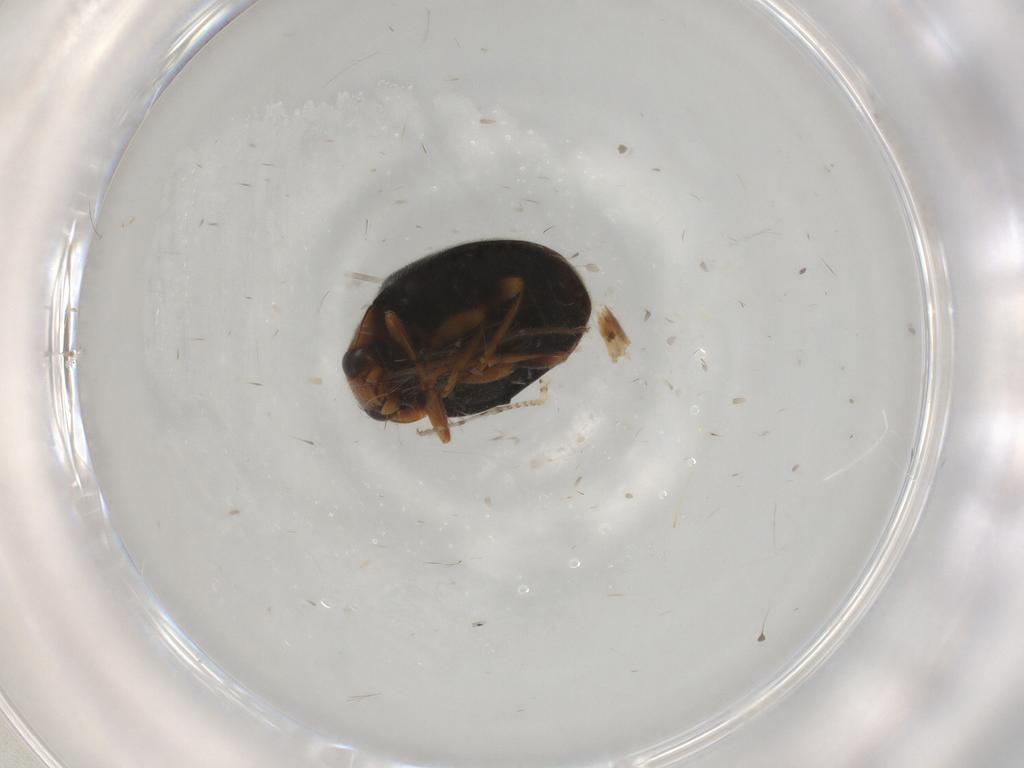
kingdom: Animalia
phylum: Arthropoda
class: Insecta
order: Coleoptera
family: Coccinellidae
